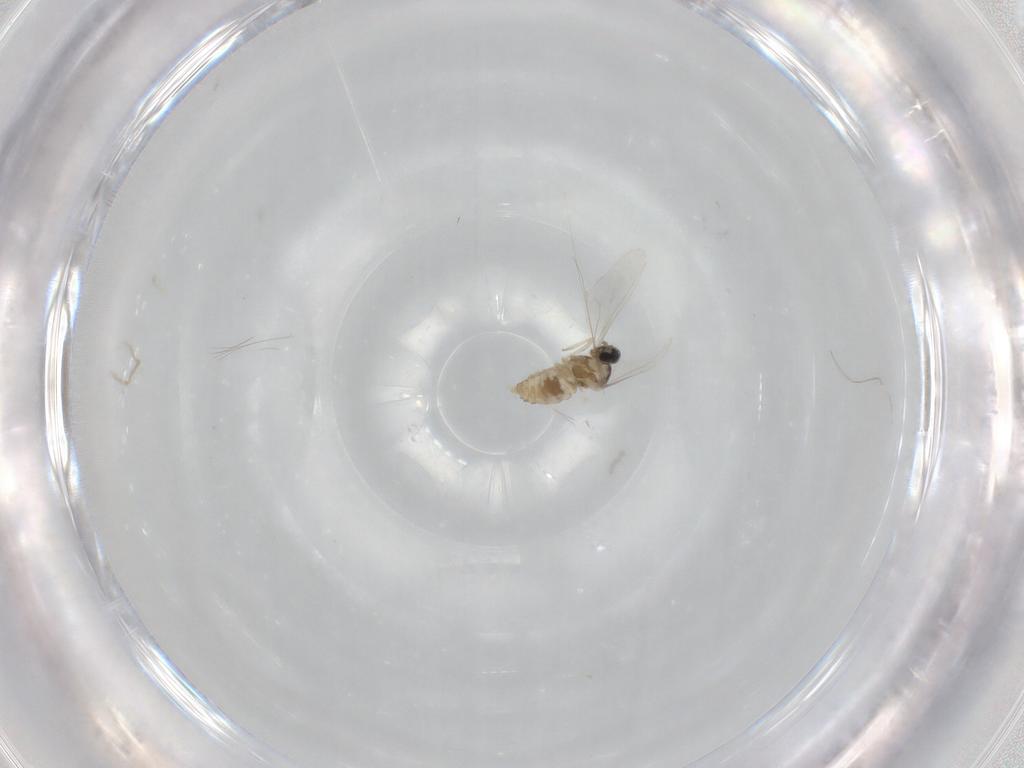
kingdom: Animalia
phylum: Arthropoda
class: Insecta
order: Diptera
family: Cecidomyiidae
